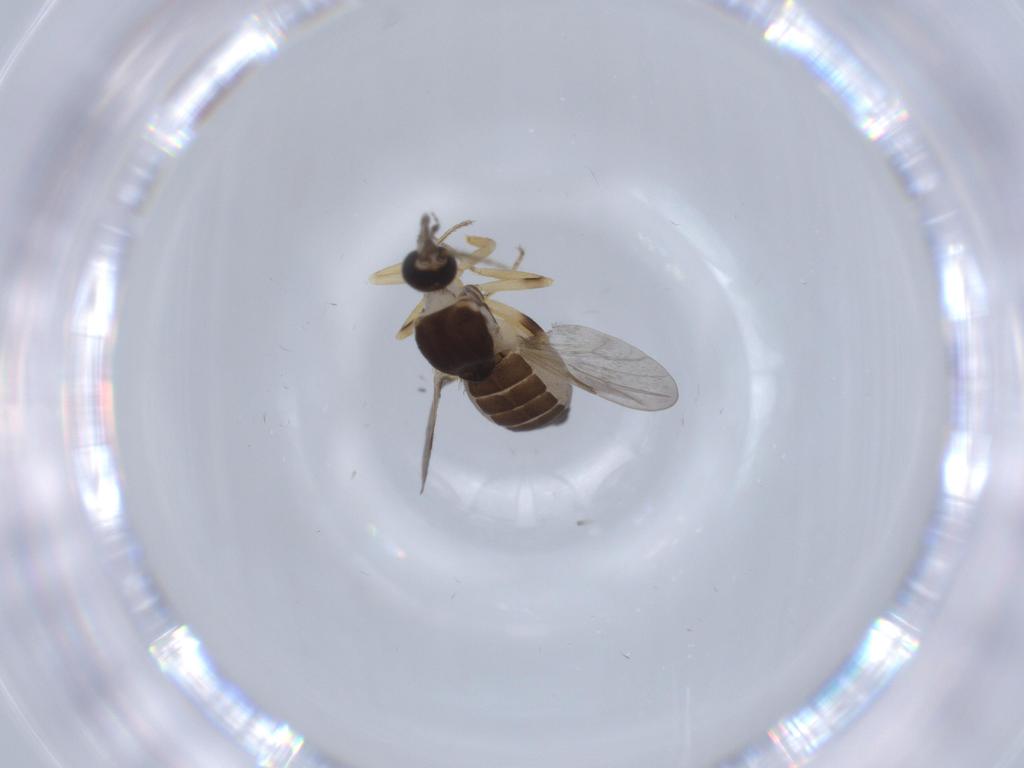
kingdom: Animalia
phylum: Arthropoda
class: Insecta
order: Diptera
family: Ceratopogonidae
